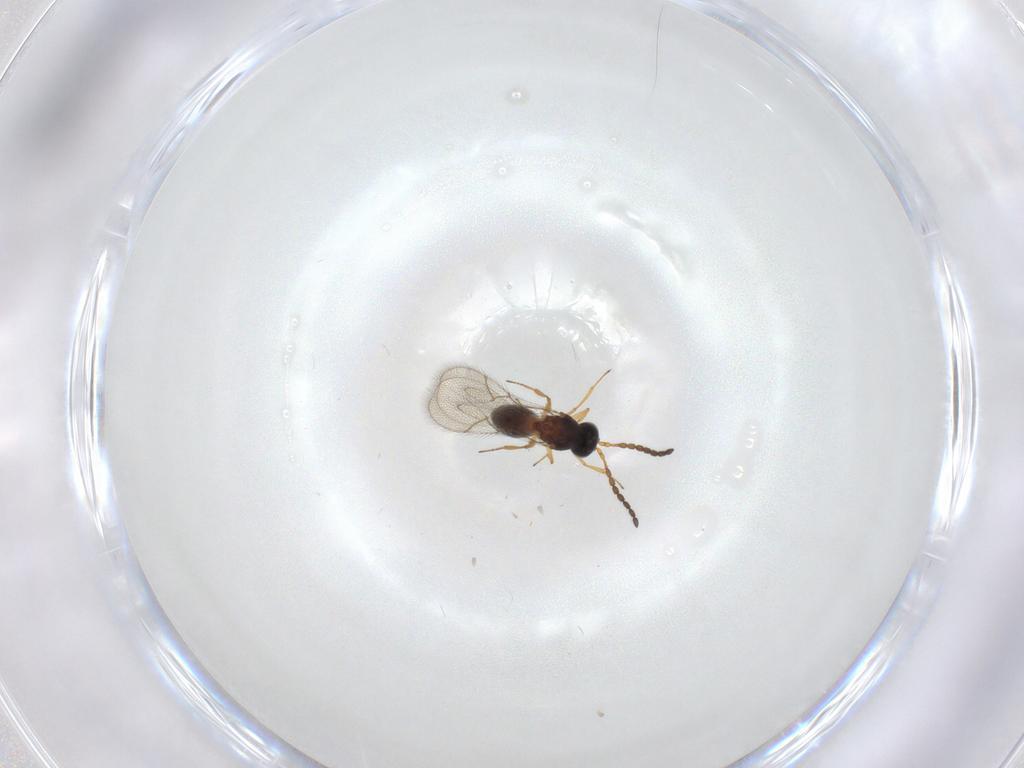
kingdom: Animalia
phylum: Arthropoda
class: Insecta
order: Hymenoptera
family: Figitidae
